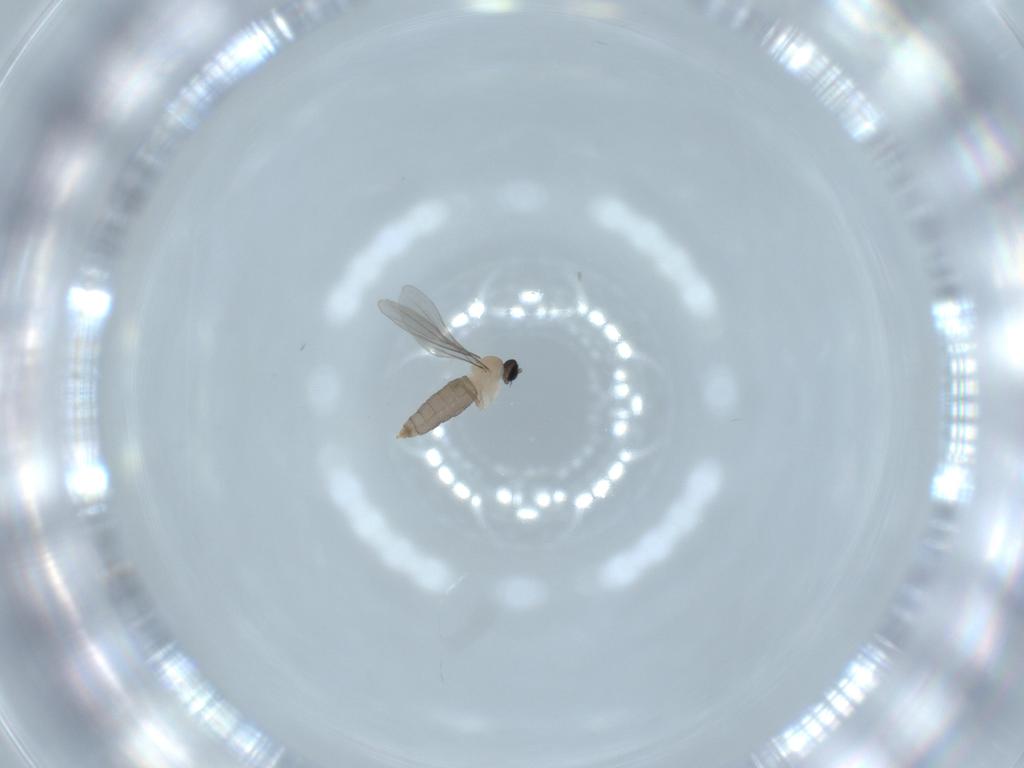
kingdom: Animalia
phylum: Arthropoda
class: Insecta
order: Diptera
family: Cecidomyiidae
